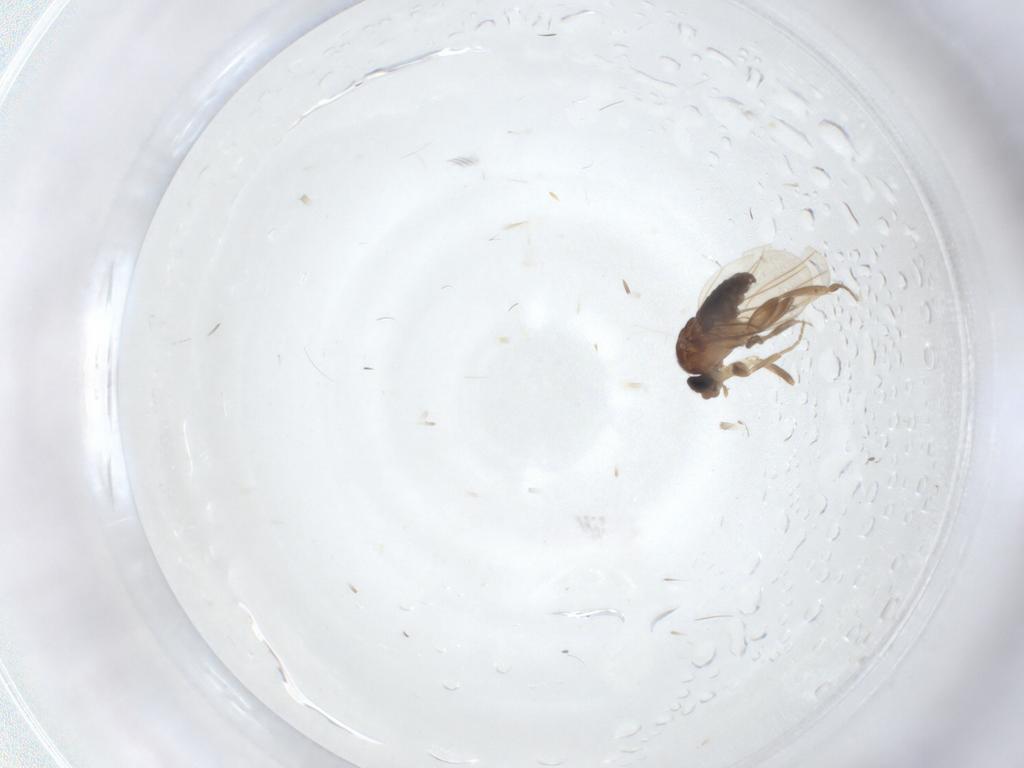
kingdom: Animalia
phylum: Arthropoda
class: Insecta
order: Diptera
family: Phoridae
